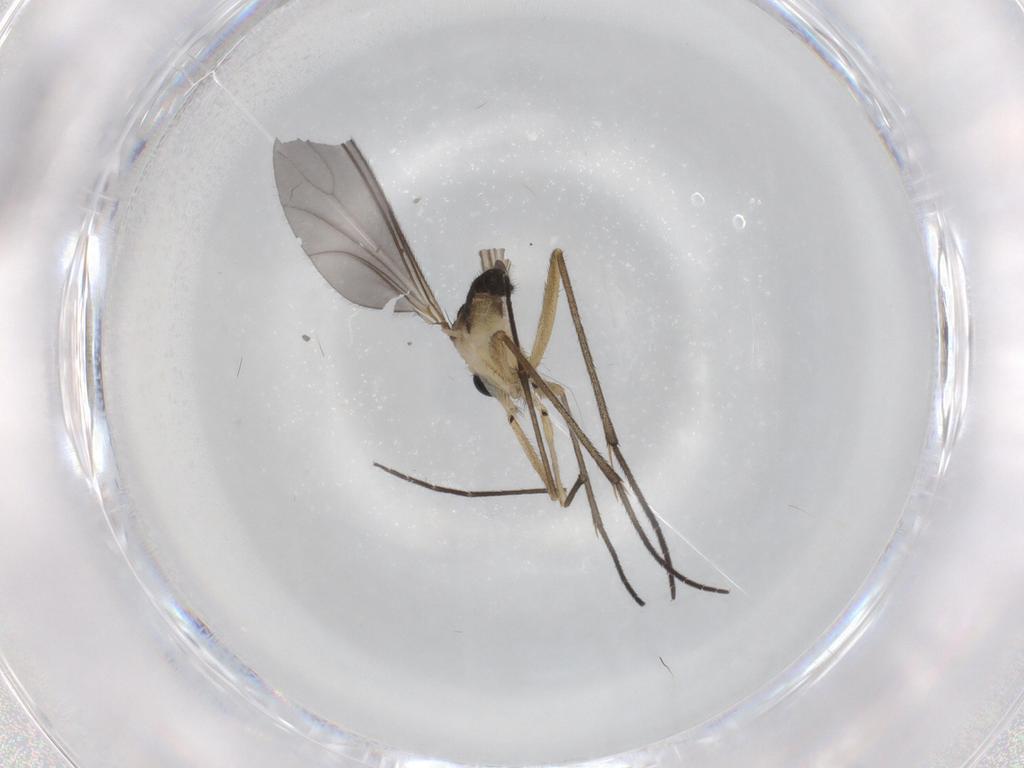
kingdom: Animalia
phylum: Arthropoda
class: Insecta
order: Diptera
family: Sciaridae
